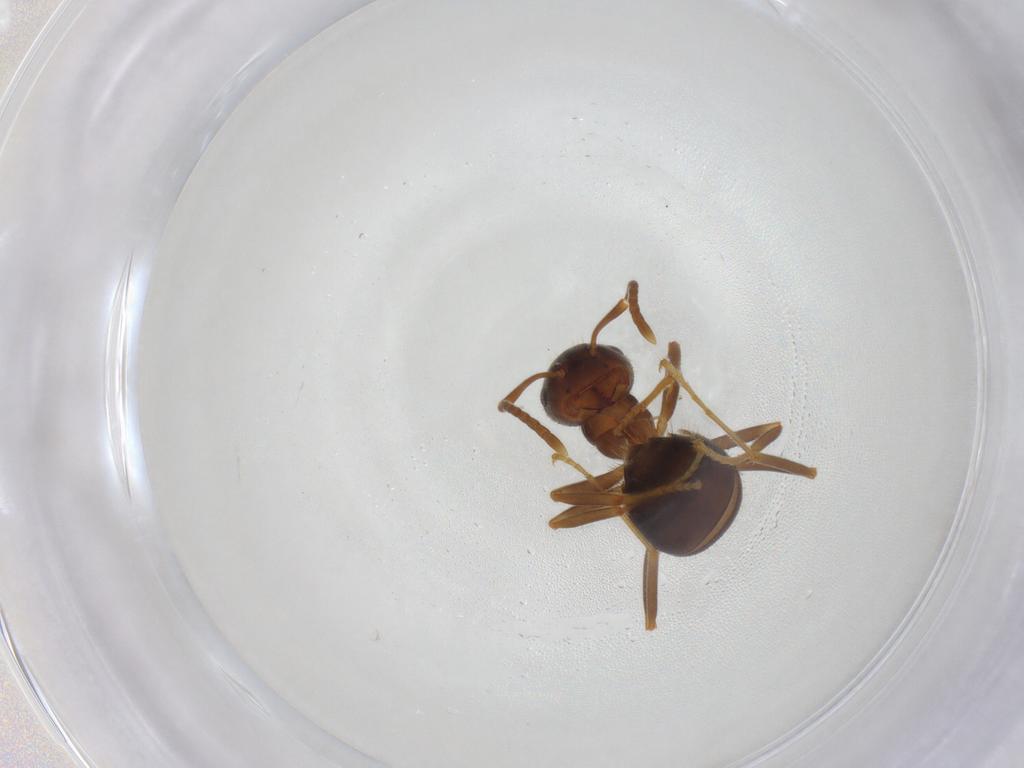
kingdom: Animalia
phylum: Arthropoda
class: Insecta
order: Hymenoptera
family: Formicidae
